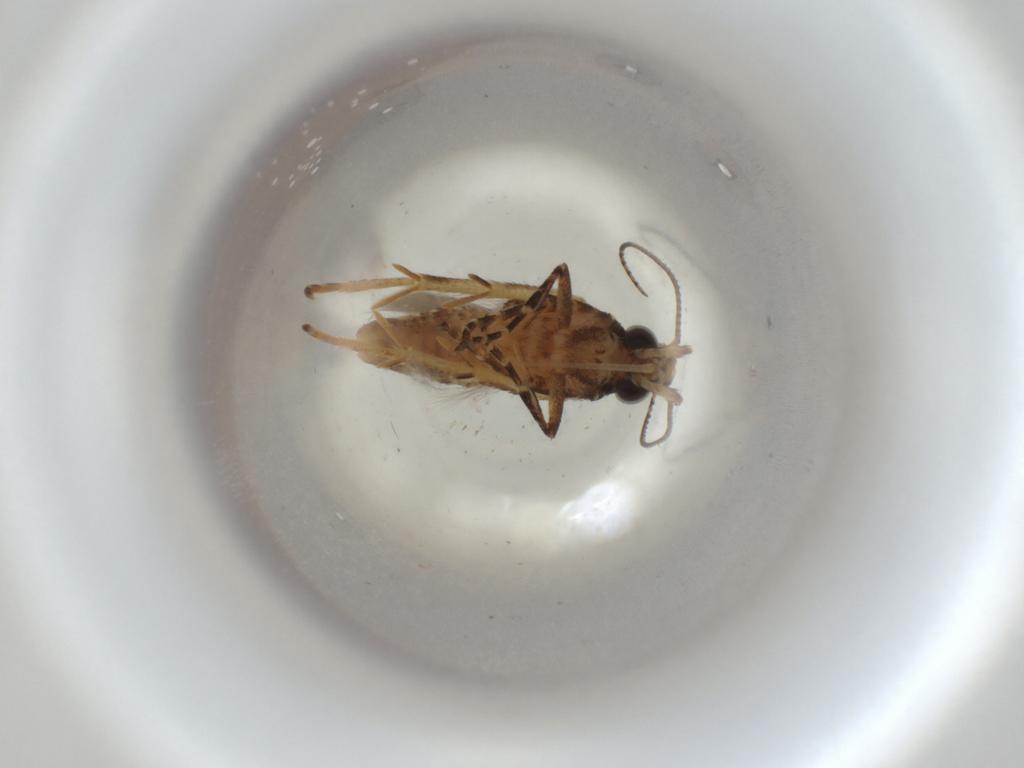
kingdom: Animalia
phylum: Arthropoda
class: Insecta
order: Lepidoptera
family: Gelechiidae
